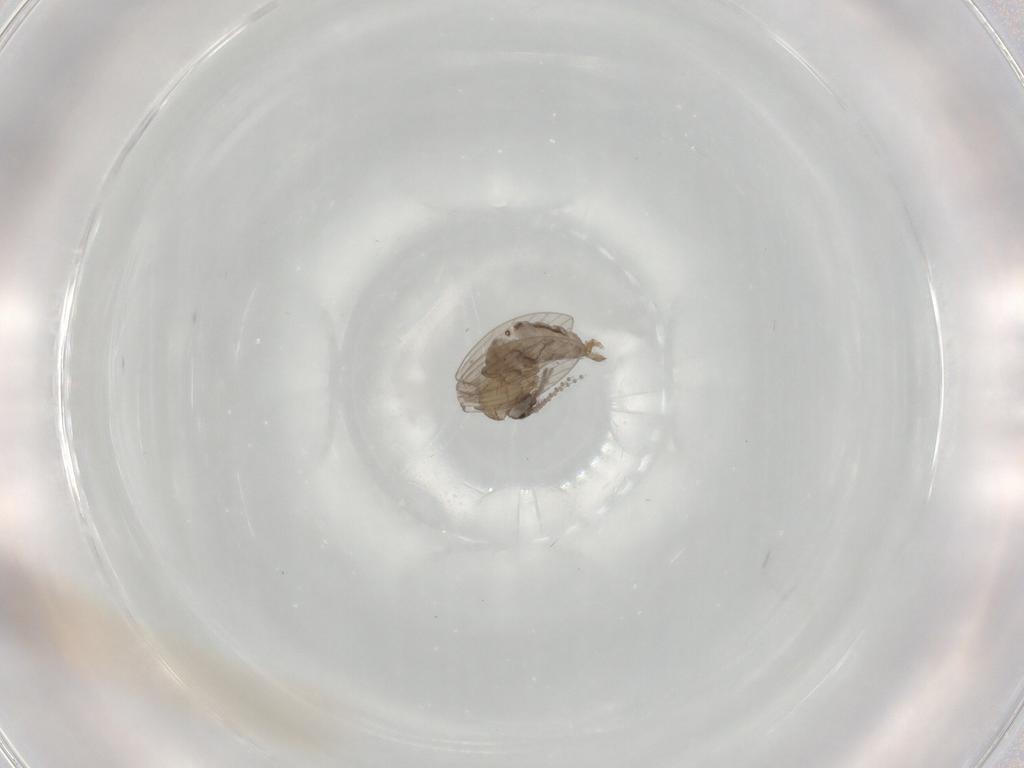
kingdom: Animalia
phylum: Arthropoda
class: Insecta
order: Diptera
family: Psychodidae
